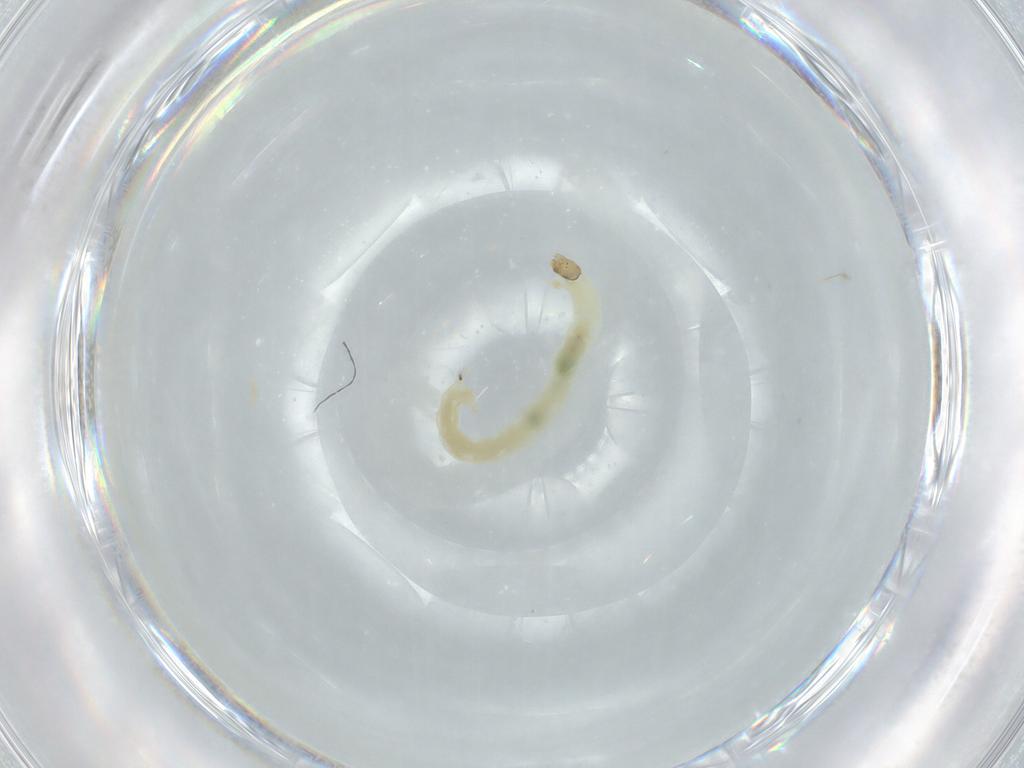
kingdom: Animalia
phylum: Arthropoda
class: Insecta
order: Diptera
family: Chironomidae
